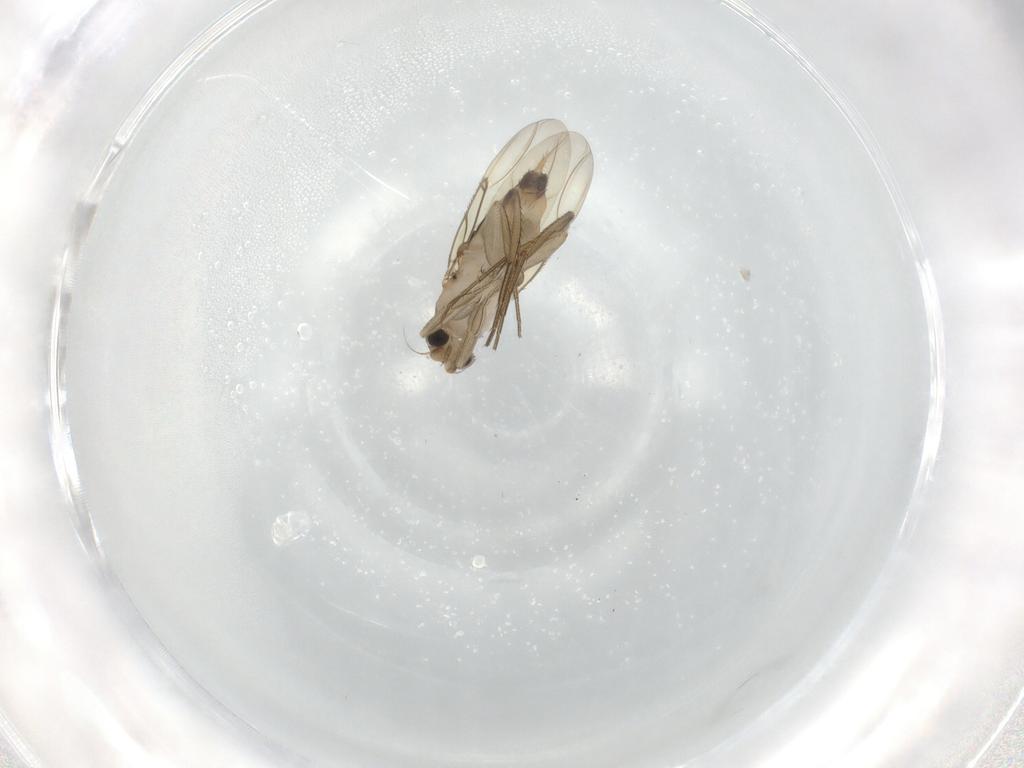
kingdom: Animalia
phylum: Arthropoda
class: Insecta
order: Diptera
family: Phoridae
